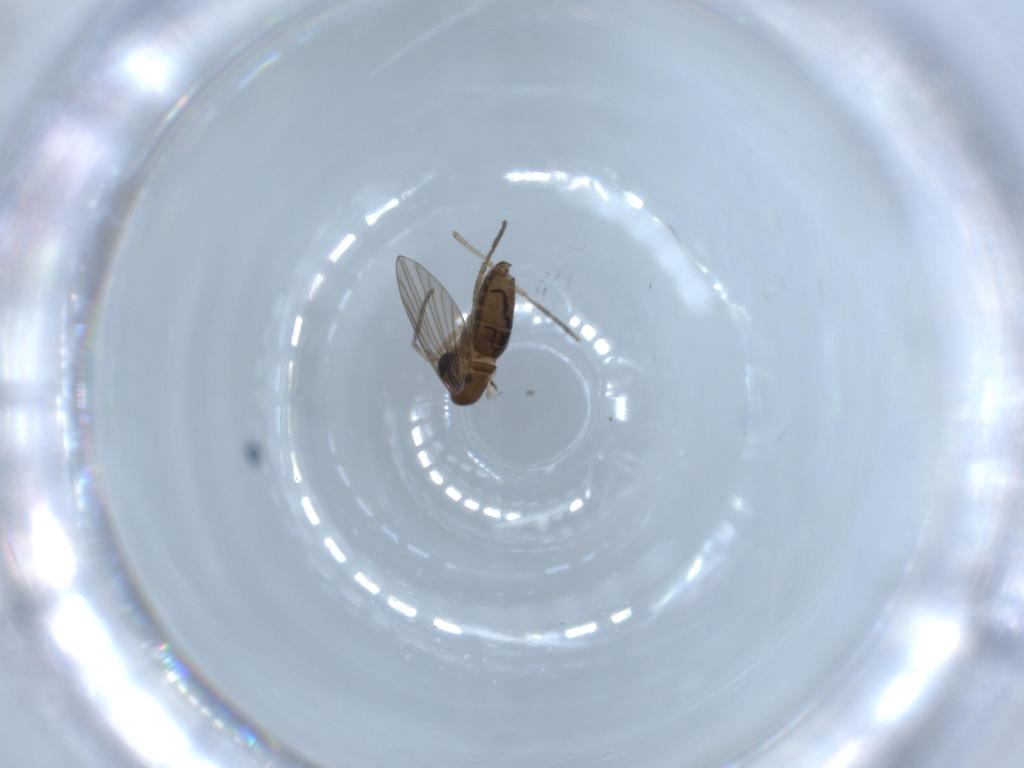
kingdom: Animalia
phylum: Arthropoda
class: Insecta
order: Diptera
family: Psychodidae
